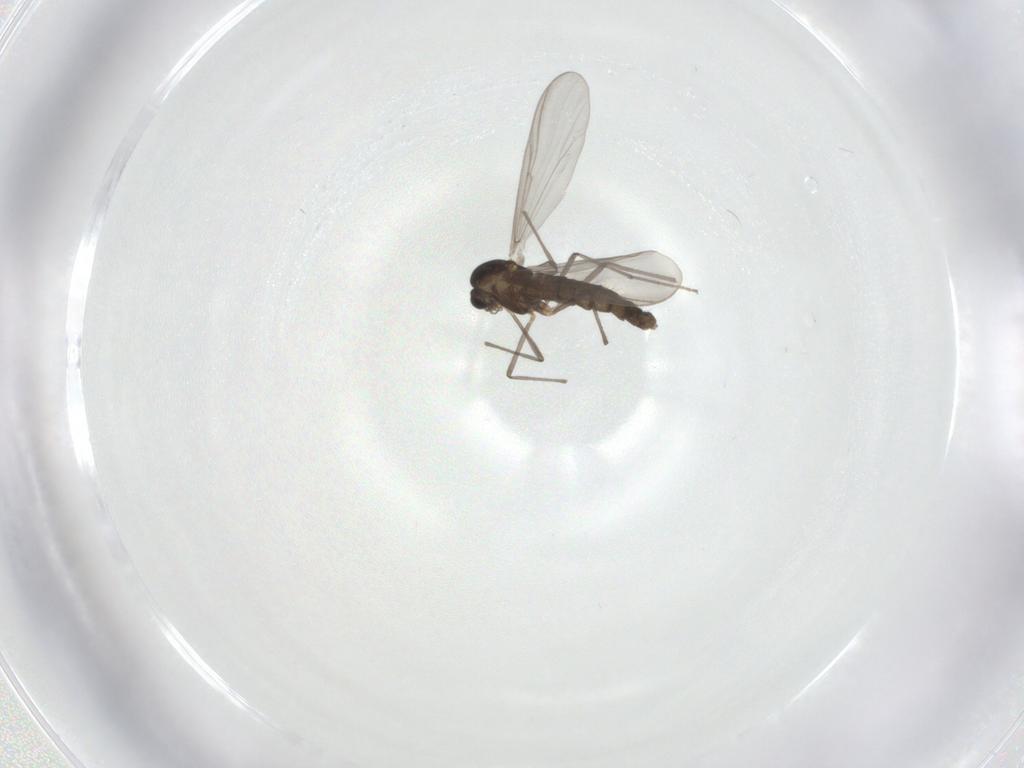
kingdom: Animalia
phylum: Arthropoda
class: Insecta
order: Diptera
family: Chironomidae
